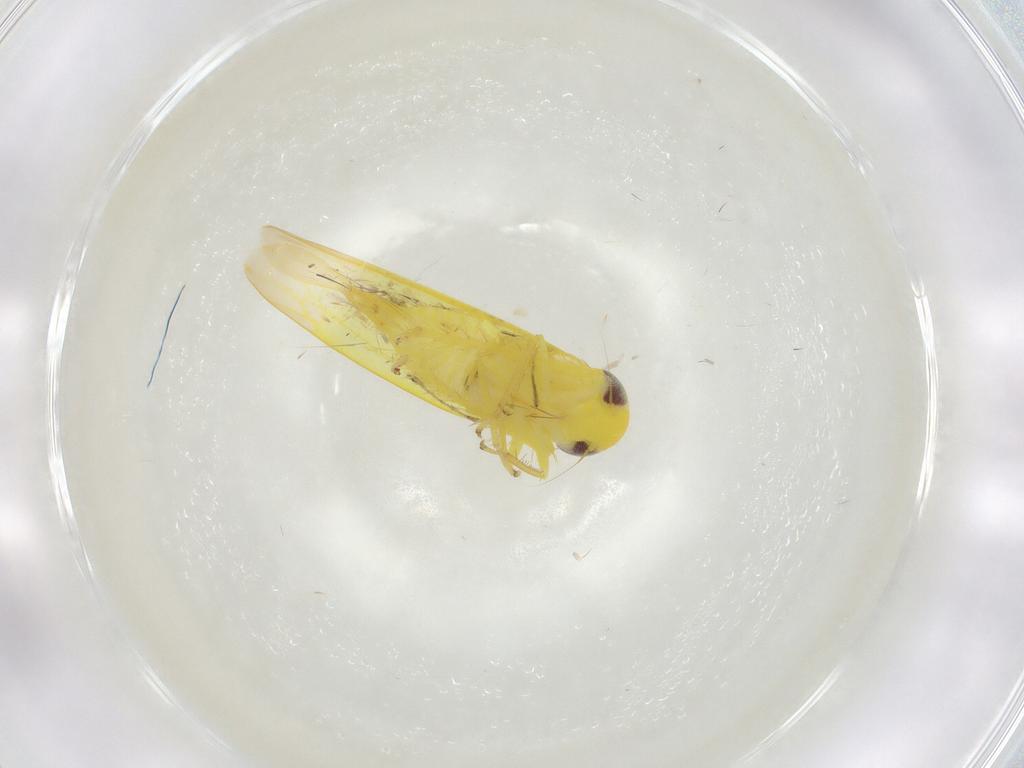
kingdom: Animalia
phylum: Arthropoda
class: Insecta
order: Hemiptera
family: Cicadellidae
